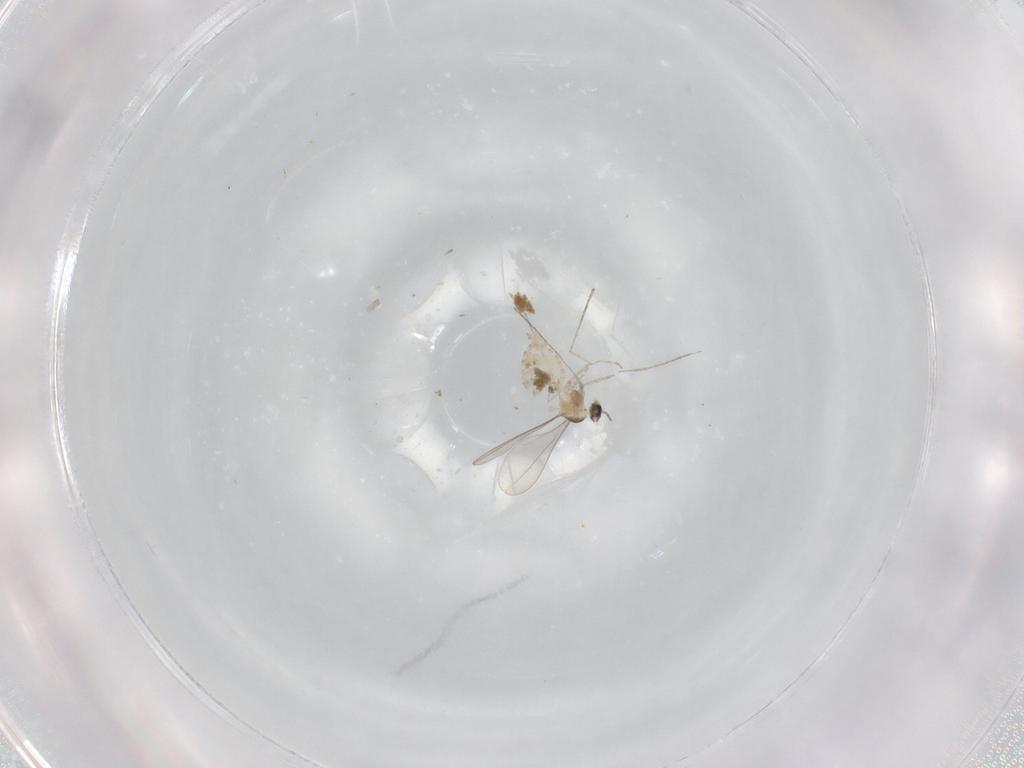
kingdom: Animalia
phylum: Arthropoda
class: Insecta
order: Diptera
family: Cecidomyiidae
